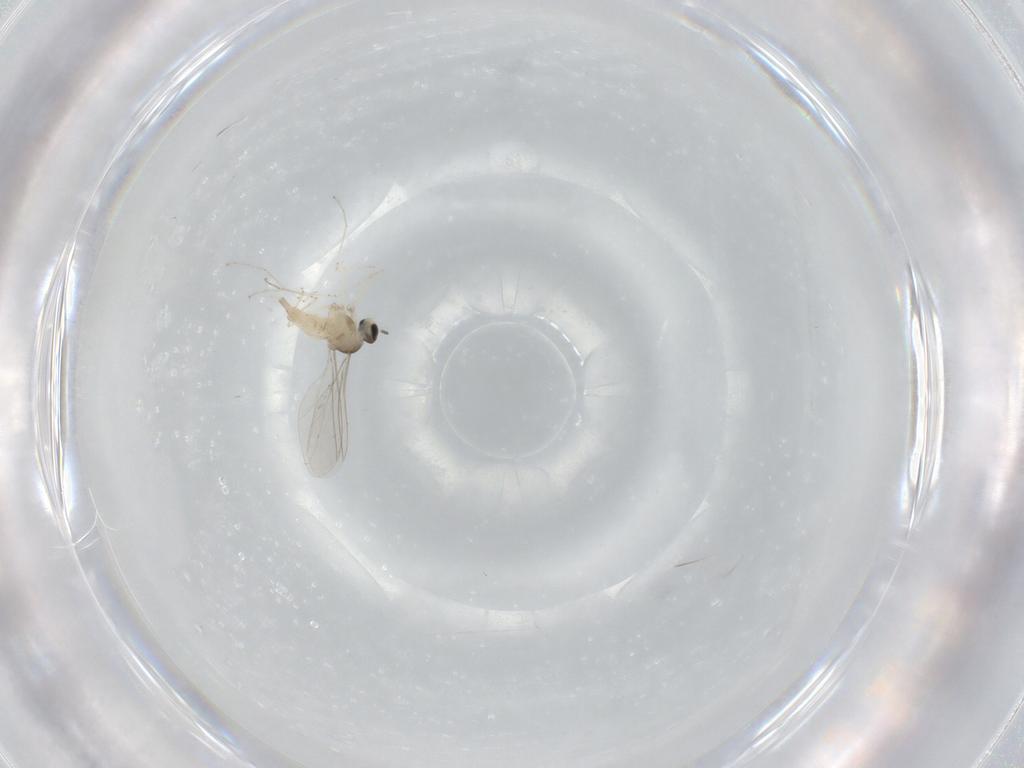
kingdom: Animalia
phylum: Arthropoda
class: Insecta
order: Diptera
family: Cecidomyiidae
